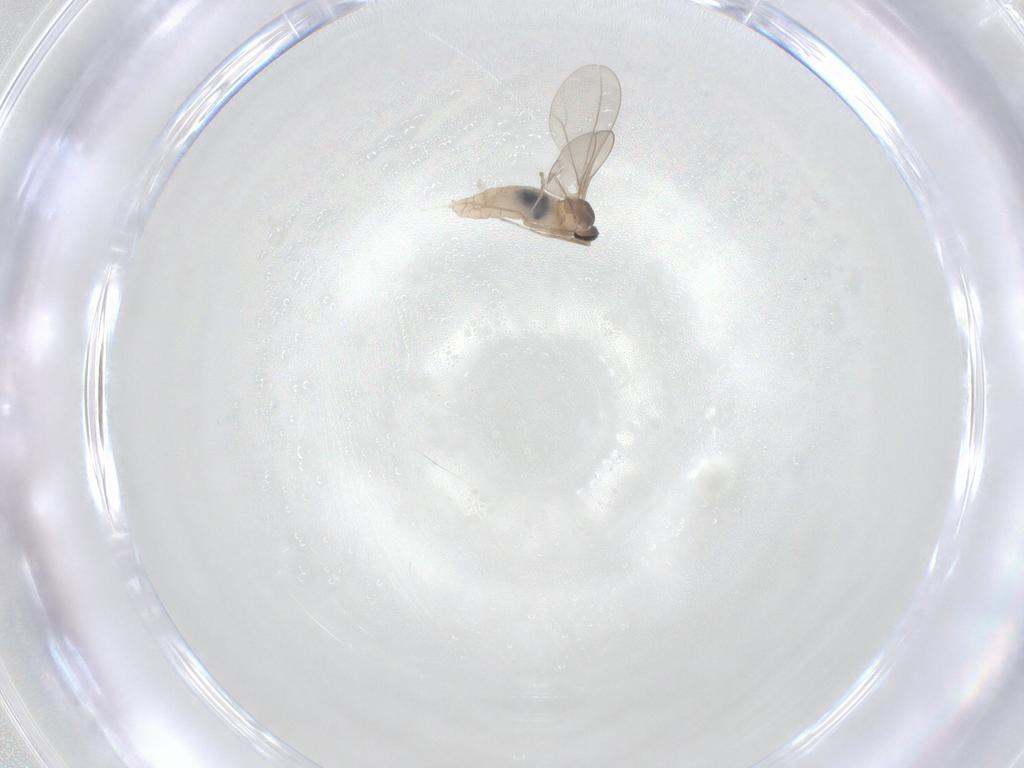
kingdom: Animalia
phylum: Arthropoda
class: Insecta
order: Diptera
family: Cecidomyiidae
